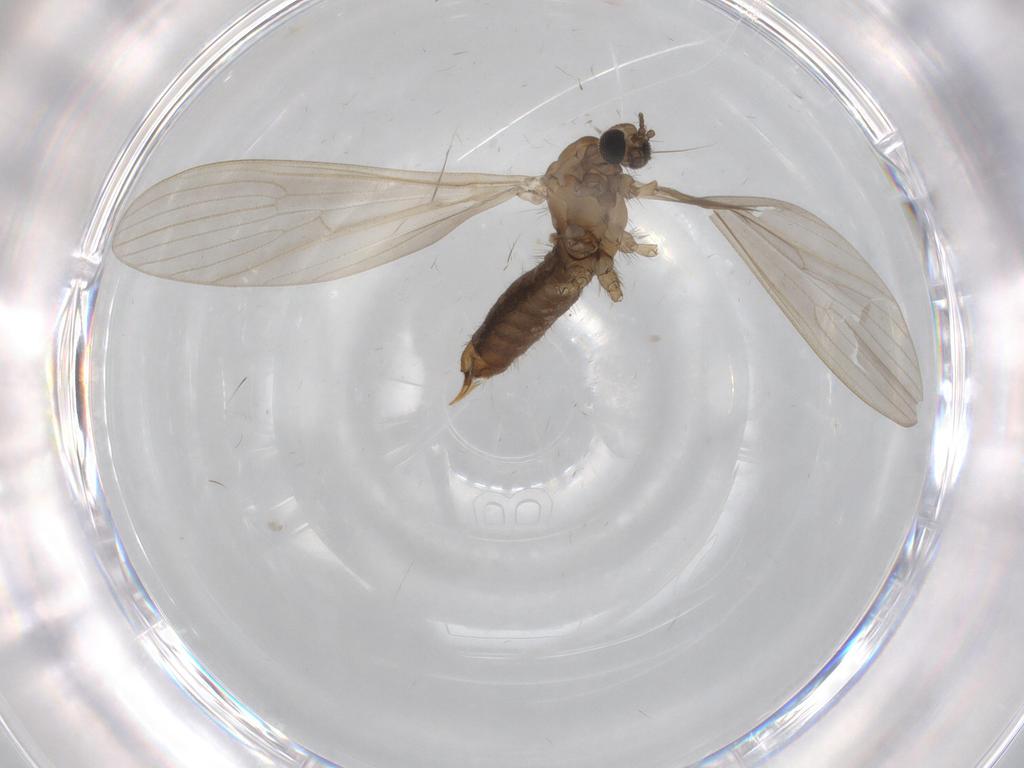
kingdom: Animalia
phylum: Arthropoda
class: Insecta
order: Diptera
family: Limoniidae
